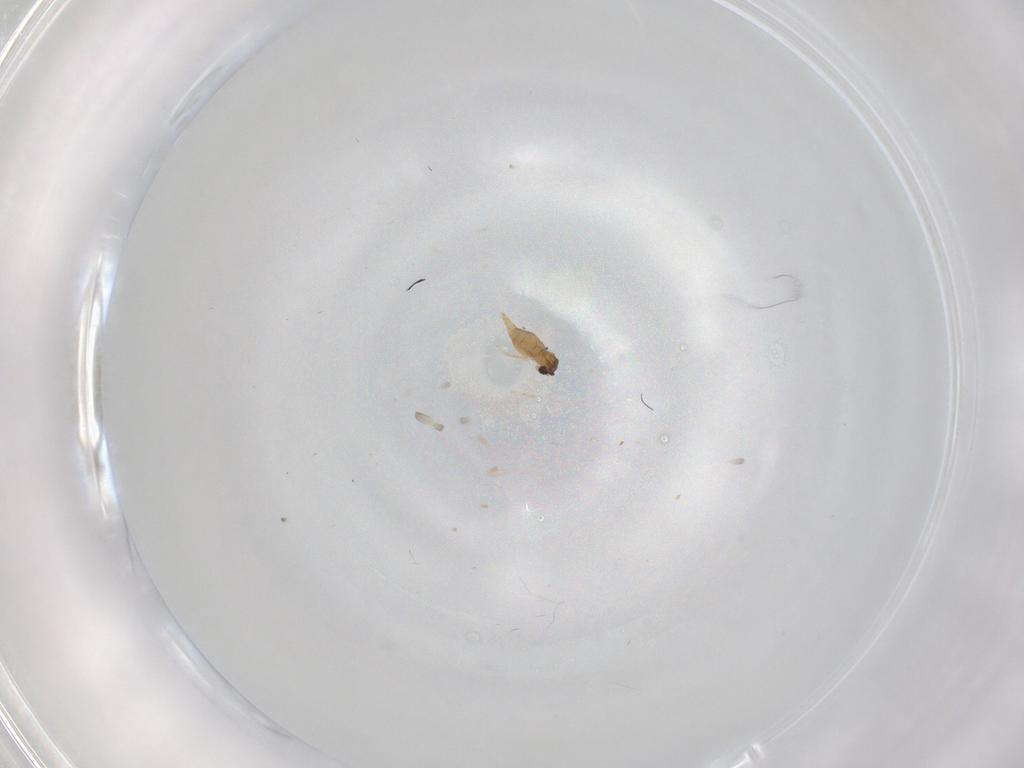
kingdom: Animalia
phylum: Arthropoda
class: Insecta
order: Diptera
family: Cecidomyiidae
